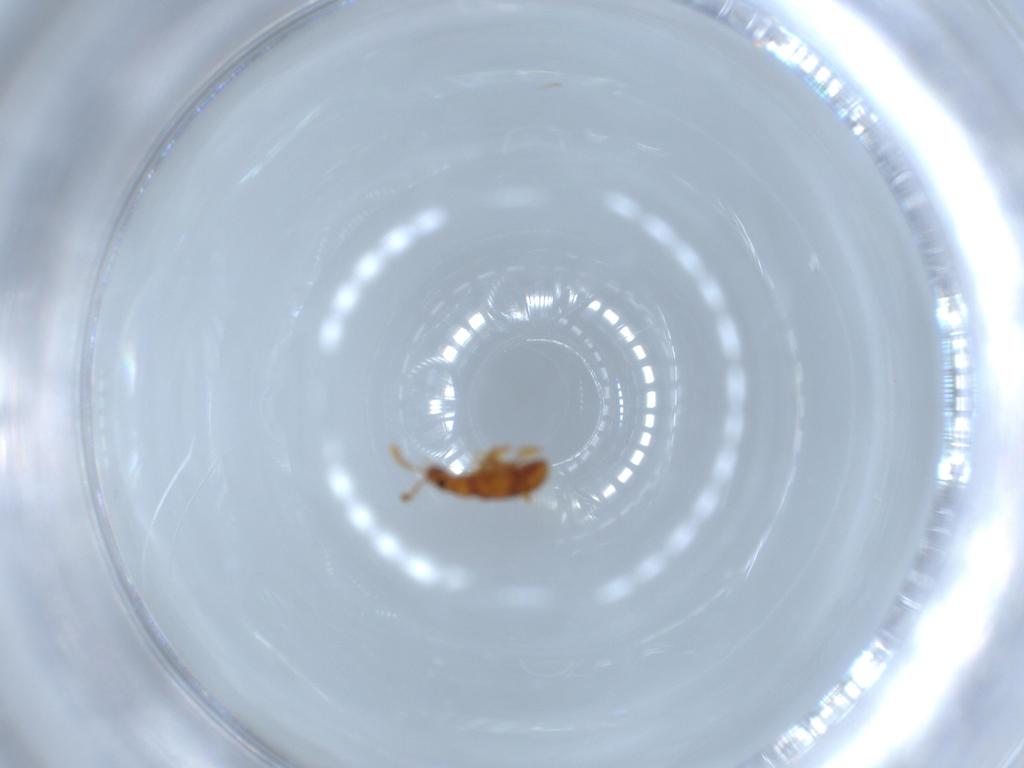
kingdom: Animalia
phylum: Arthropoda
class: Insecta
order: Coleoptera
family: Staphylinidae
